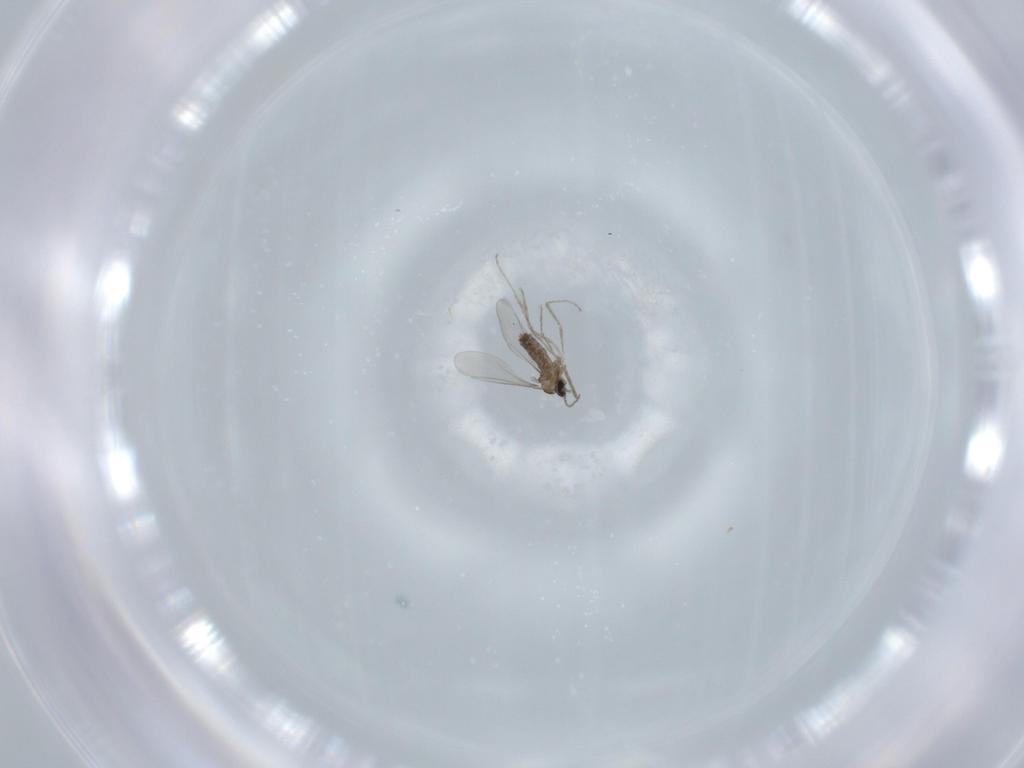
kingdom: Animalia
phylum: Arthropoda
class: Insecta
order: Diptera
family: Cecidomyiidae
